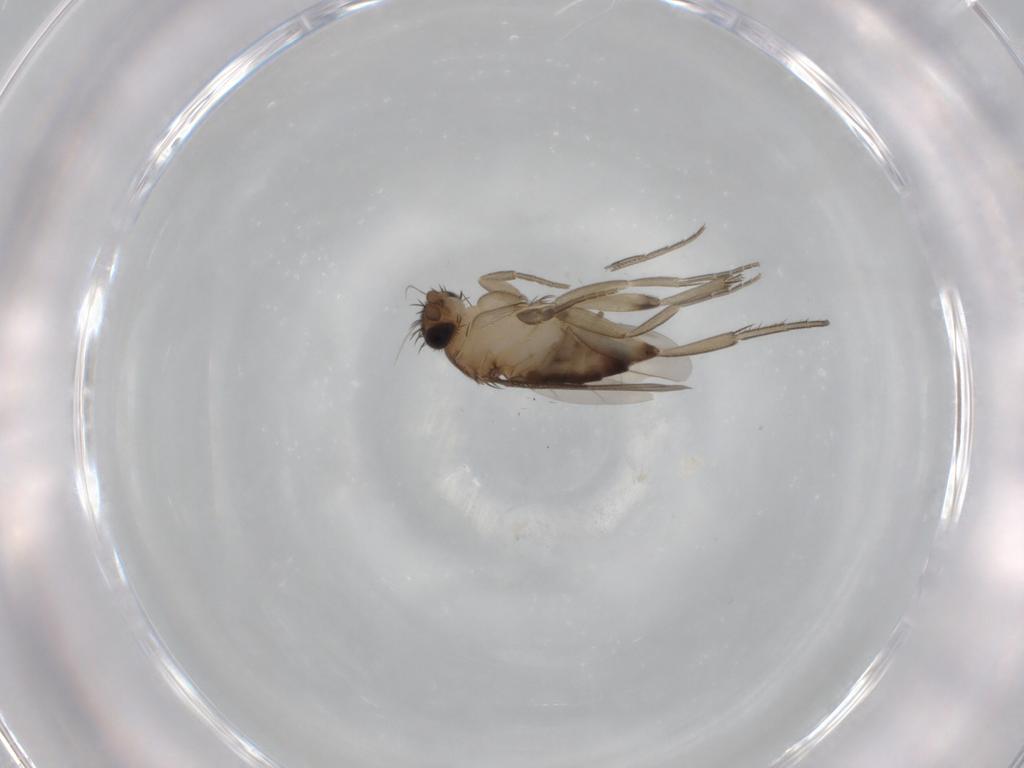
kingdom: Animalia
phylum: Arthropoda
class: Insecta
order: Diptera
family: Phoridae
